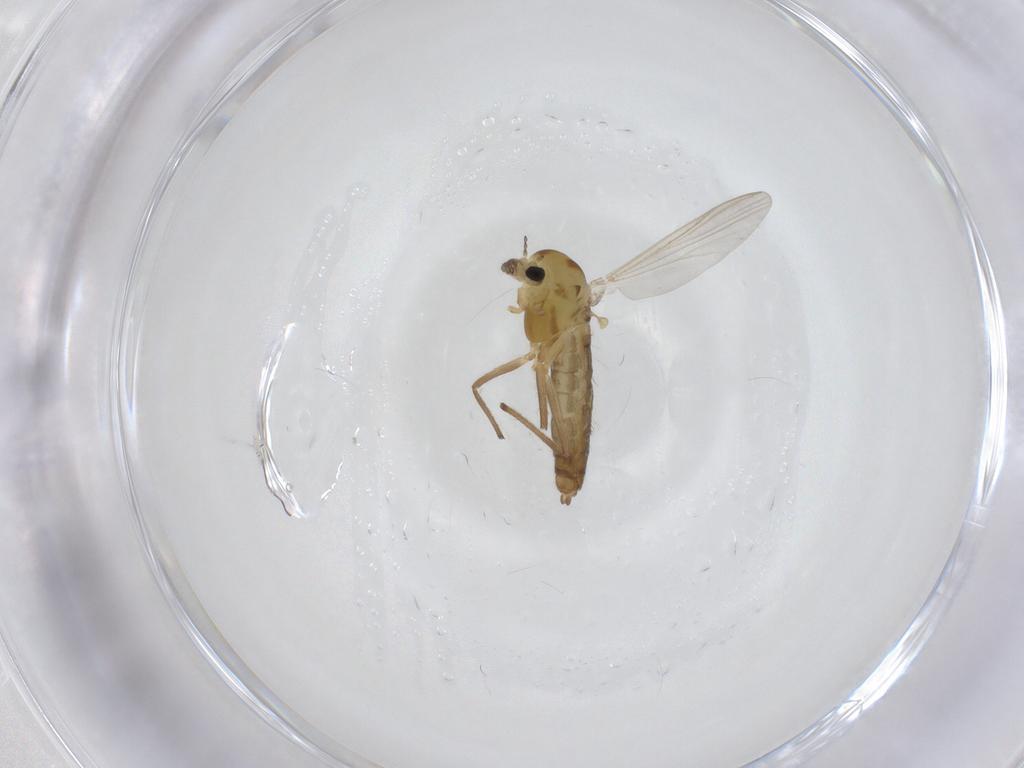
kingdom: Animalia
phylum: Arthropoda
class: Insecta
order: Diptera
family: Chironomidae
